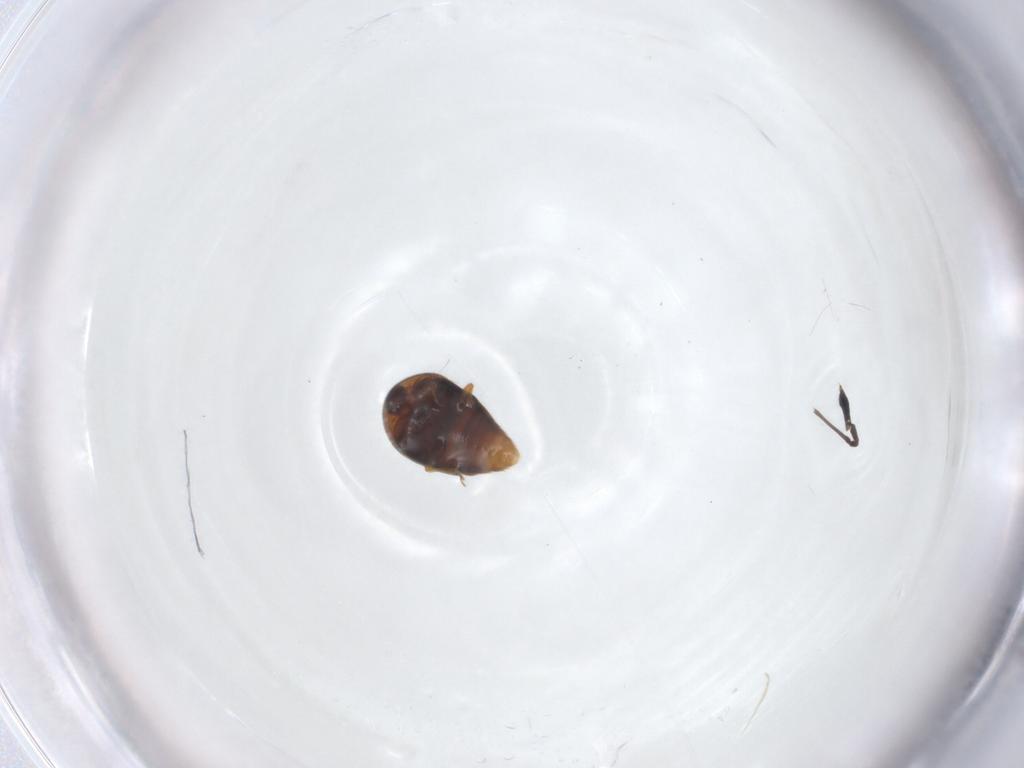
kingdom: Animalia
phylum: Arthropoda
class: Insecta
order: Coleoptera
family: Corylophidae
